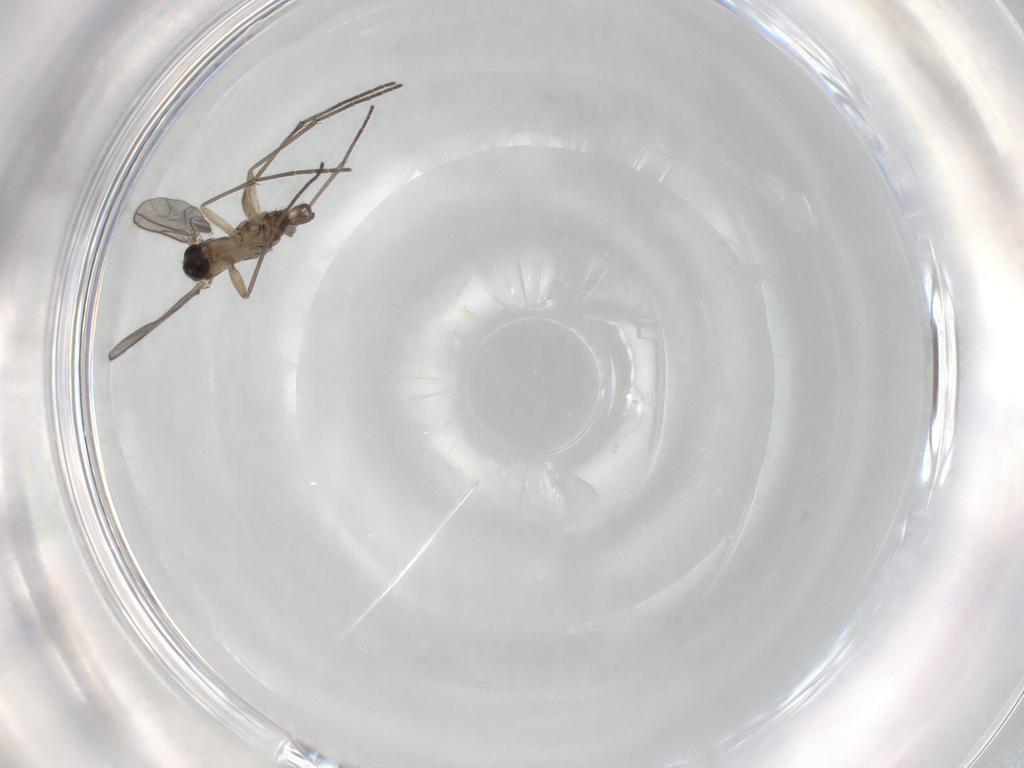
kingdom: Animalia
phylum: Arthropoda
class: Insecta
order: Diptera
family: Sciaridae
